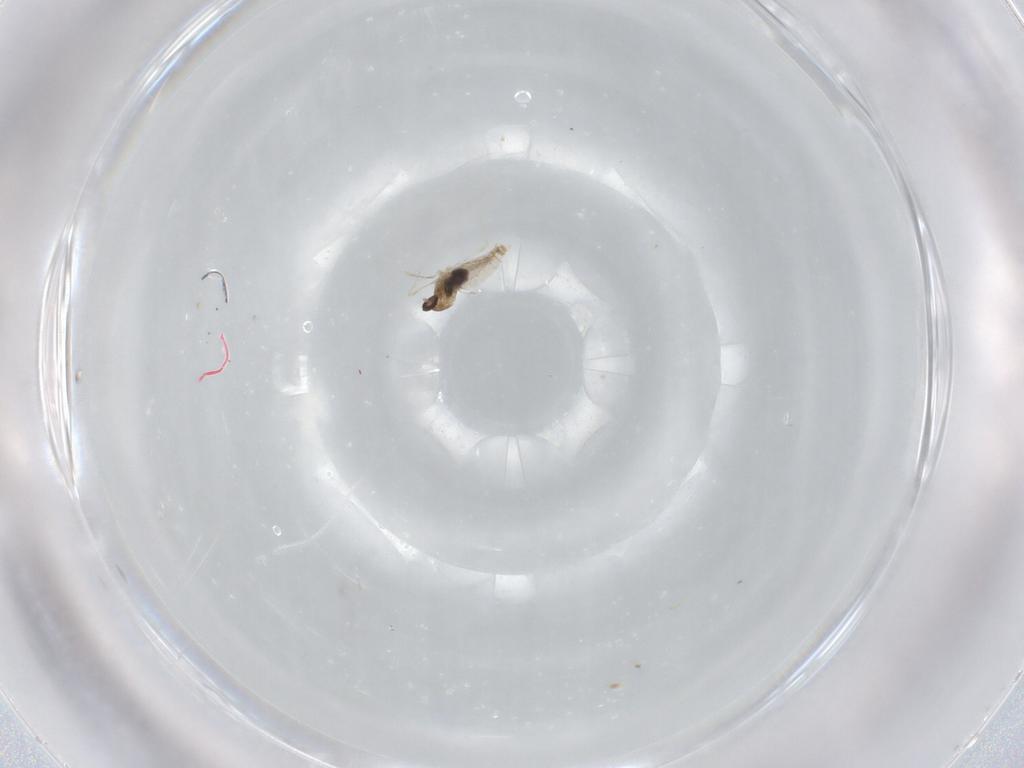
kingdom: Animalia
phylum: Arthropoda
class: Insecta
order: Diptera
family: Cecidomyiidae
